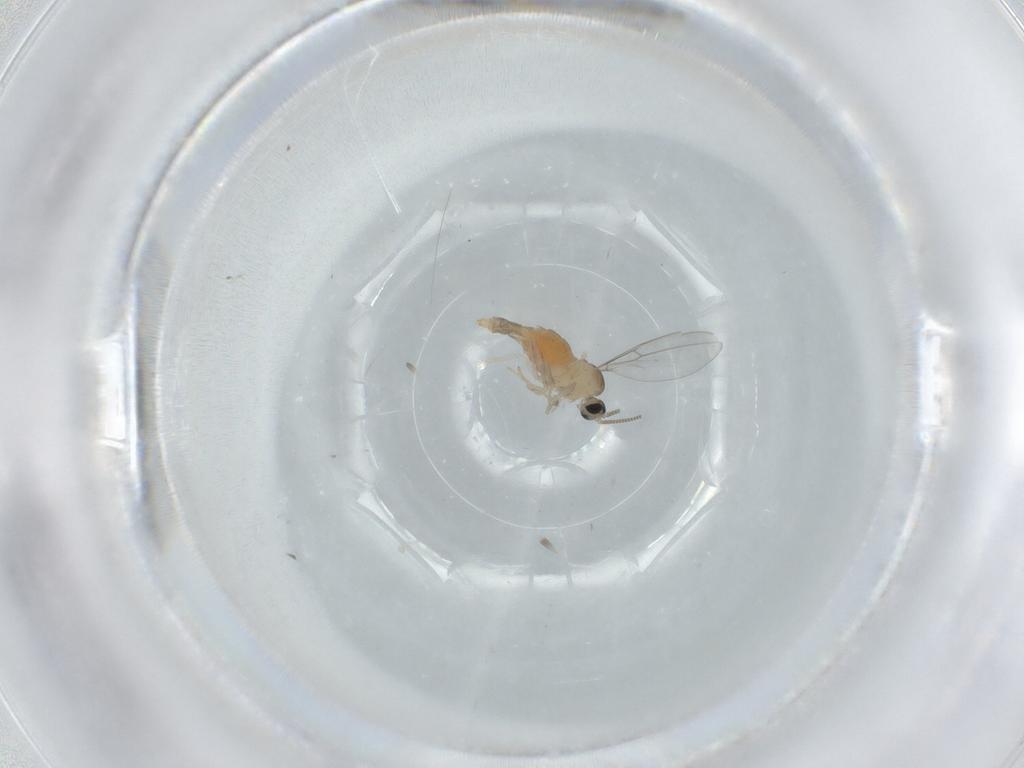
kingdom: Animalia
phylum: Arthropoda
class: Insecta
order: Diptera
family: Cecidomyiidae
